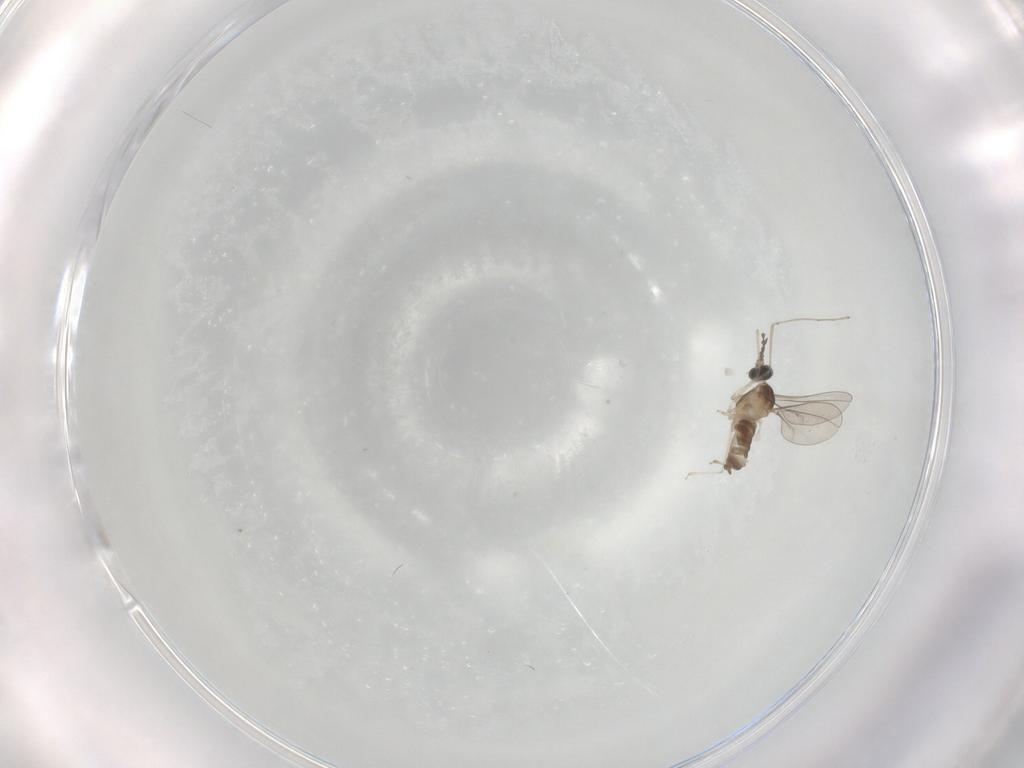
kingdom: Animalia
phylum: Arthropoda
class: Insecta
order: Diptera
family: Cecidomyiidae
